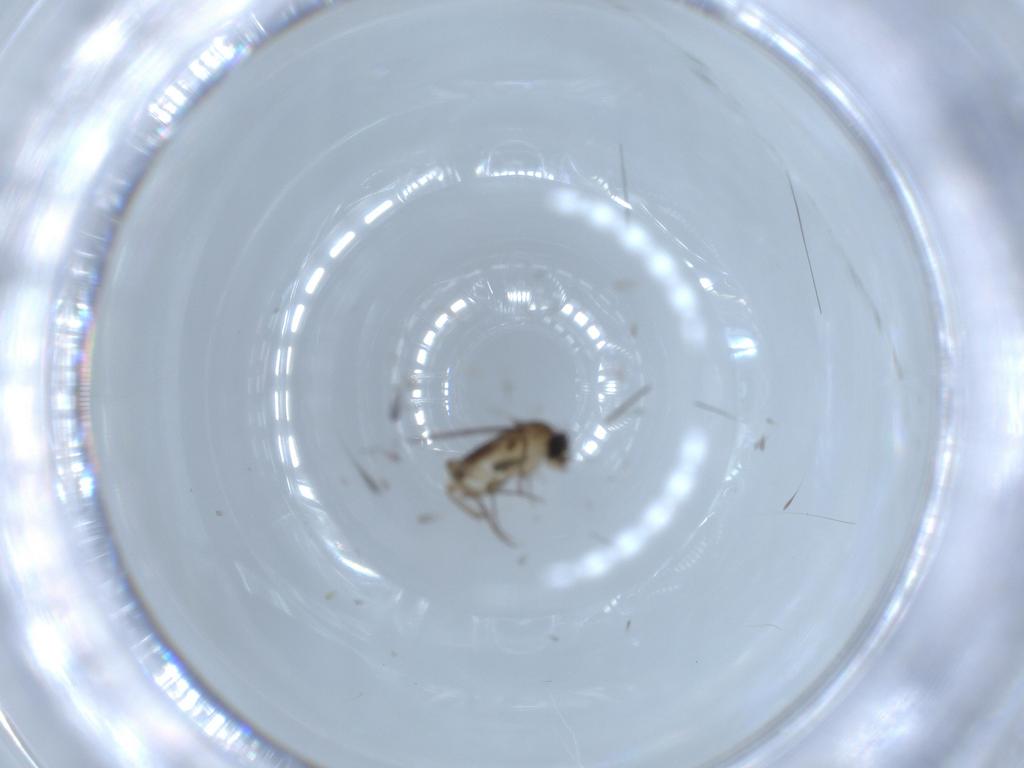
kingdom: Animalia
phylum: Arthropoda
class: Insecta
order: Diptera
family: Phoridae
